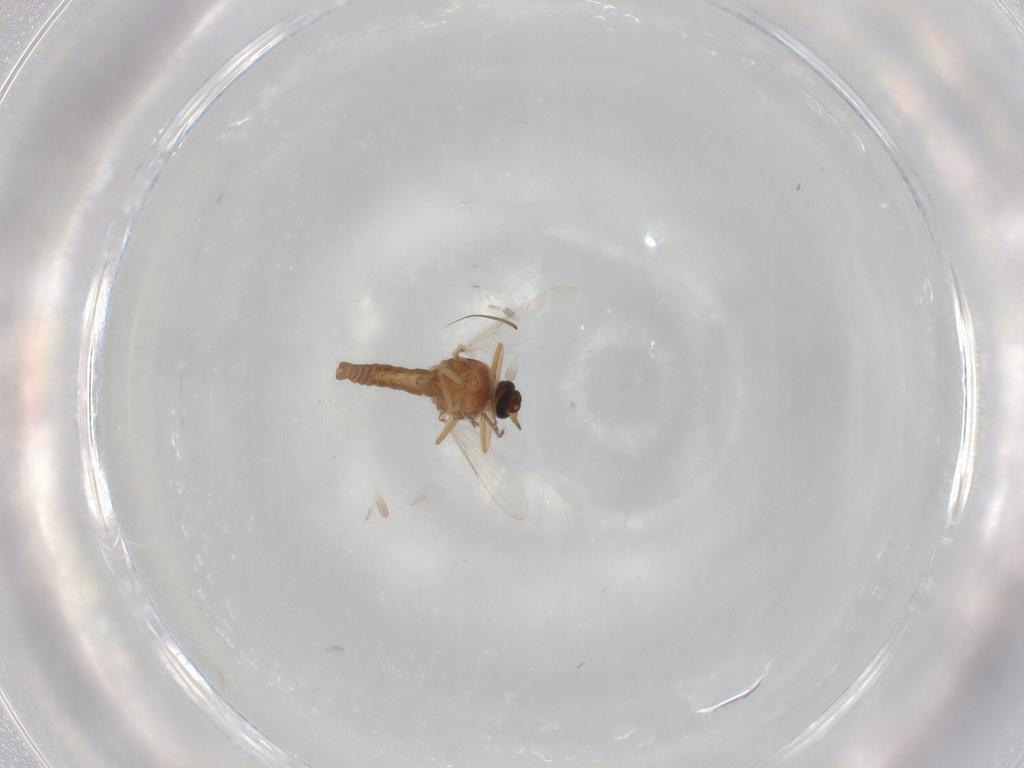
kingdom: Animalia
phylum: Arthropoda
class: Insecta
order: Diptera
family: Ceratopogonidae
